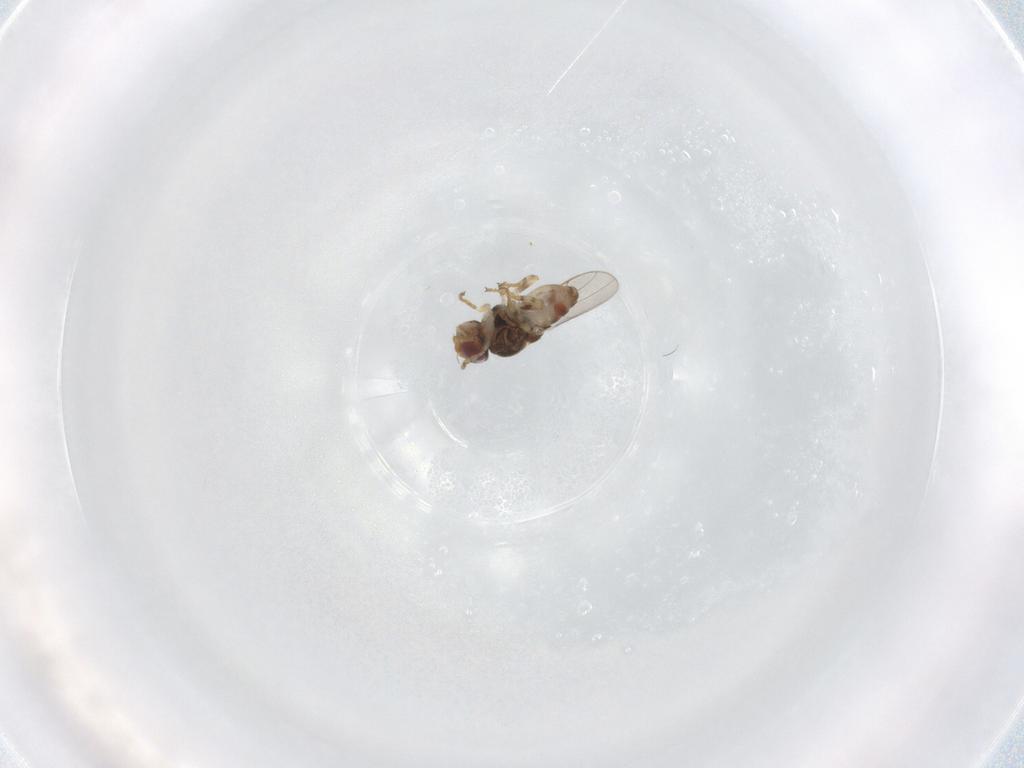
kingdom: Animalia
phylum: Arthropoda
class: Insecta
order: Diptera
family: Chloropidae
